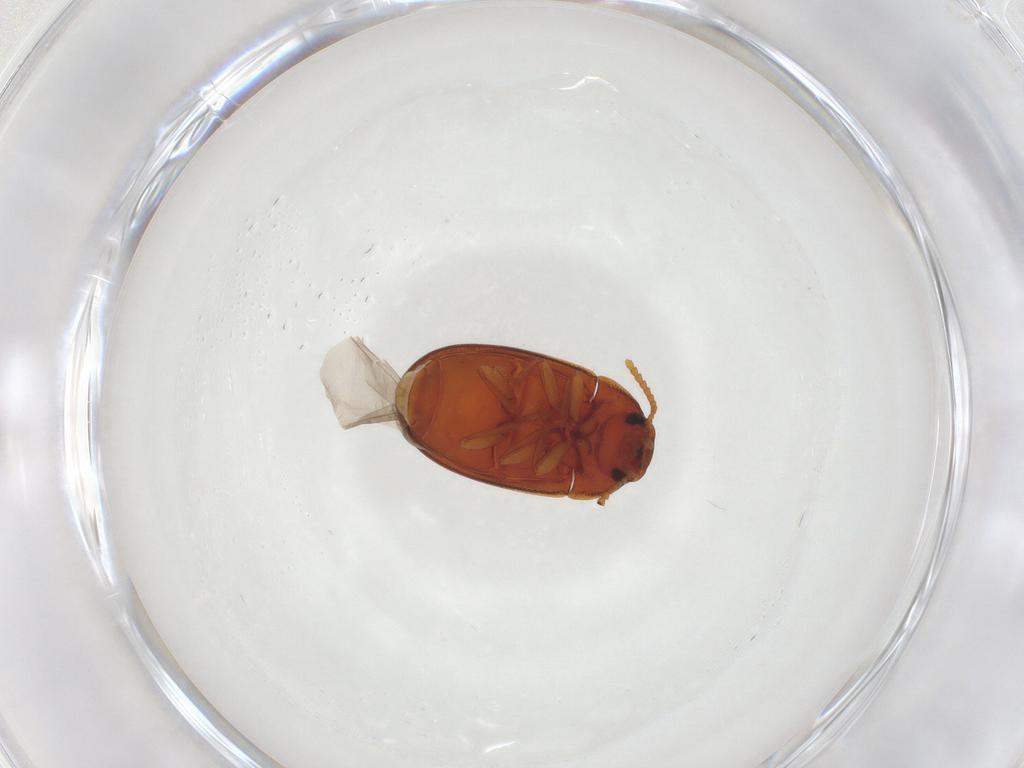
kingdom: Animalia
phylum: Arthropoda
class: Insecta
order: Coleoptera
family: Tenebrionidae
